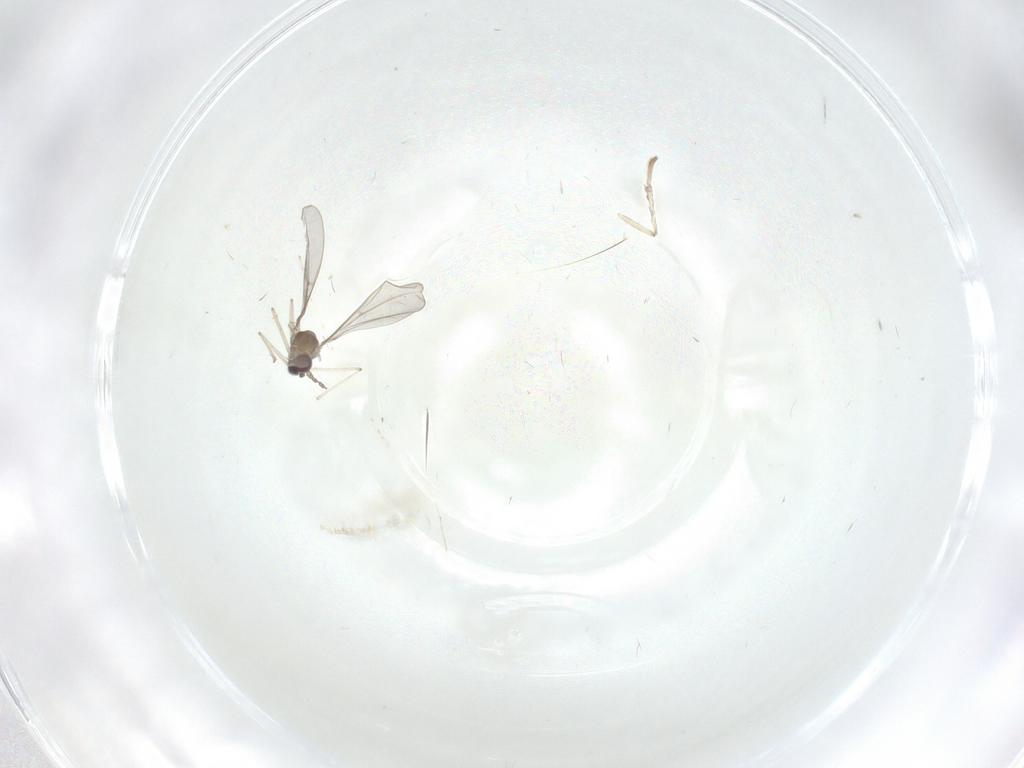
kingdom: Animalia
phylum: Arthropoda
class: Insecta
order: Diptera
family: Cecidomyiidae
